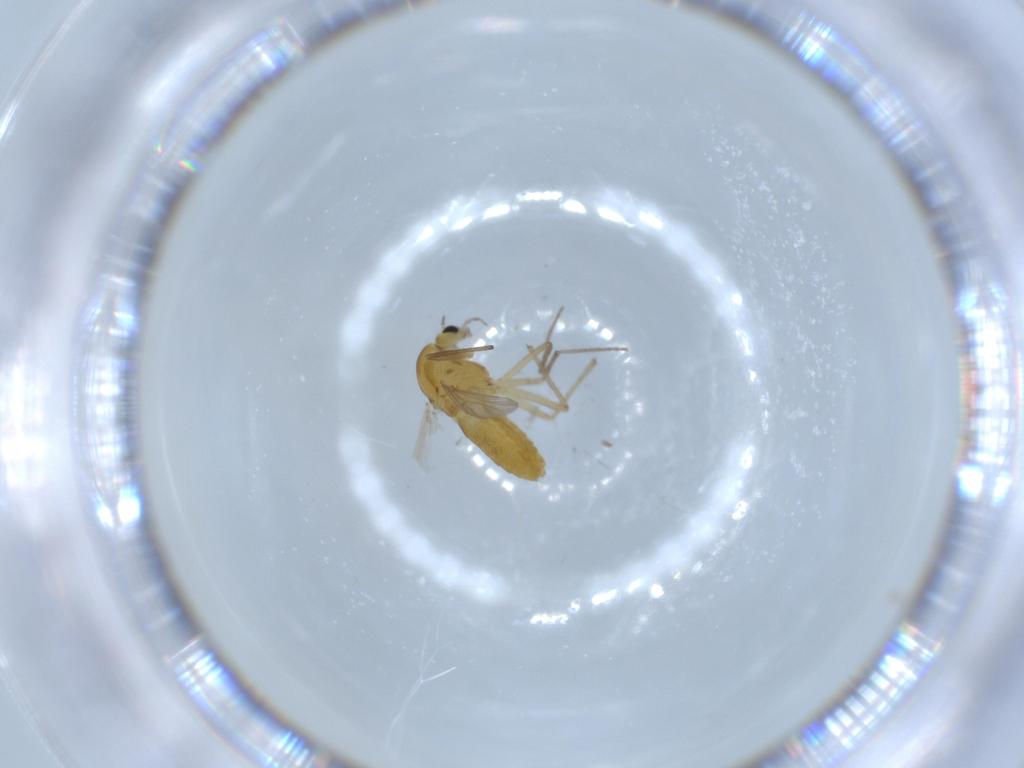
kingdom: Animalia
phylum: Arthropoda
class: Insecta
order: Diptera
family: Chironomidae
